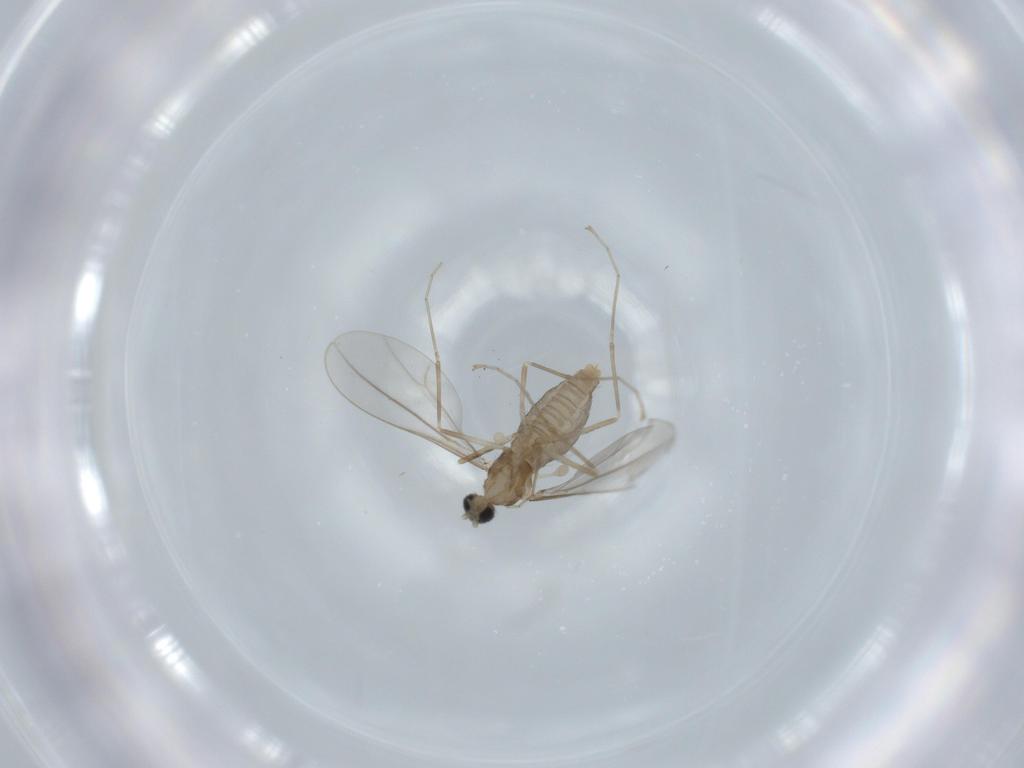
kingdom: Animalia
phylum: Arthropoda
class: Insecta
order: Diptera
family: Cecidomyiidae
